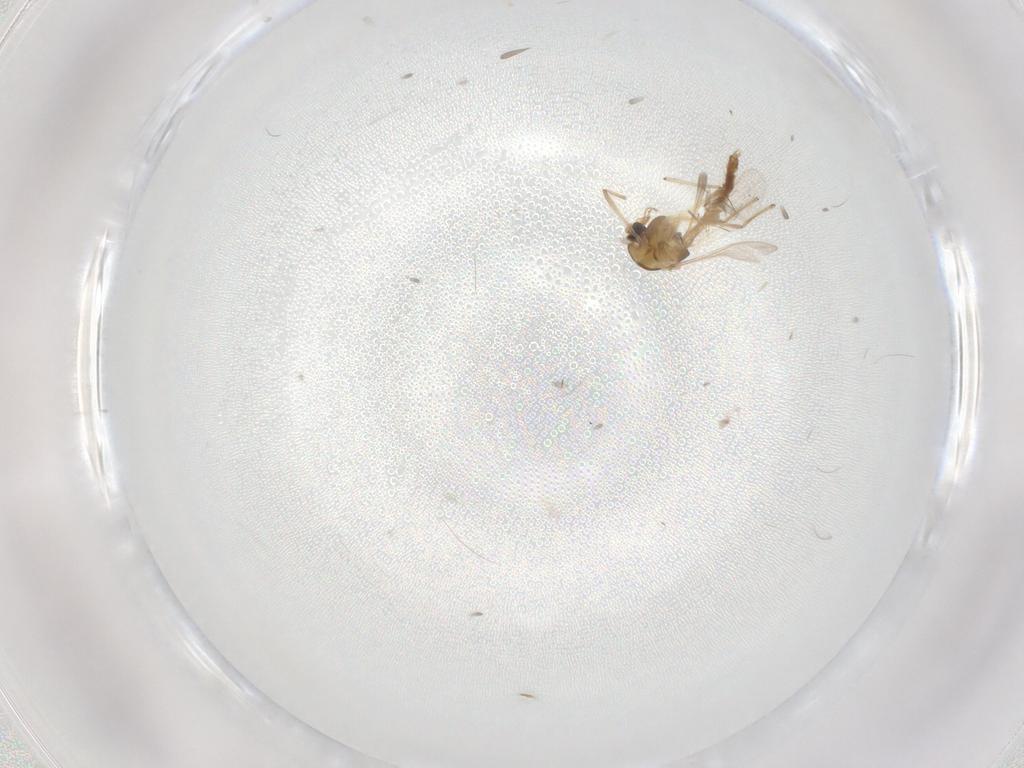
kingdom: Animalia
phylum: Arthropoda
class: Insecta
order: Diptera
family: Chironomidae
